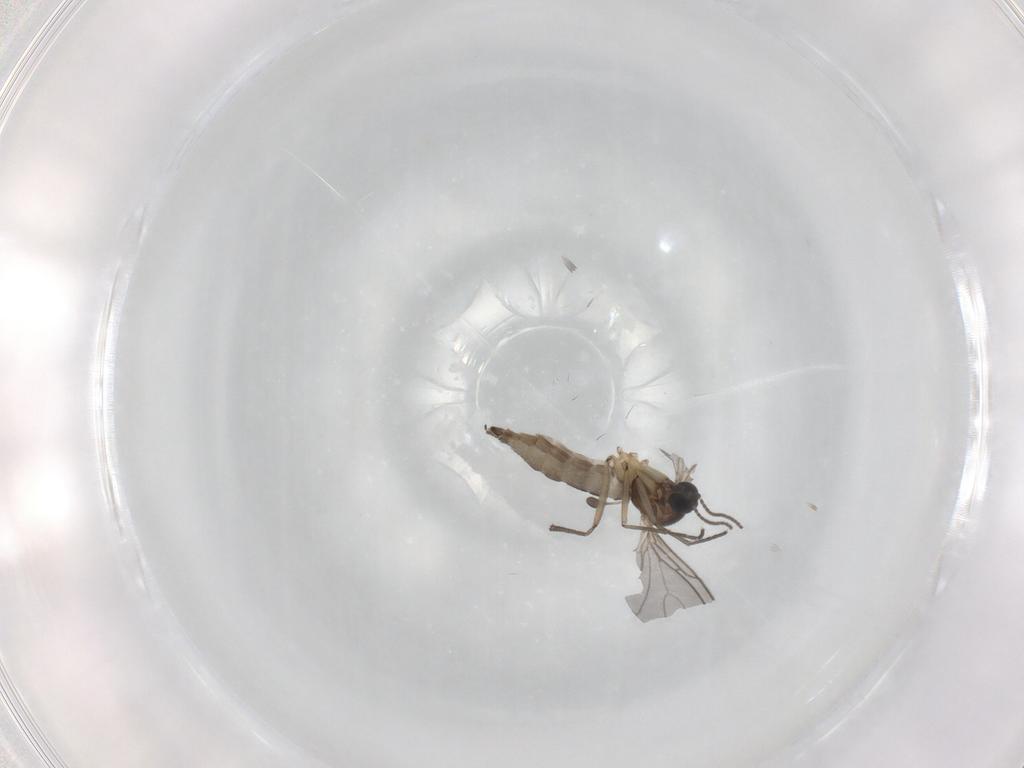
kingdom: Animalia
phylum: Arthropoda
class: Insecta
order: Diptera
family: Sciaridae
